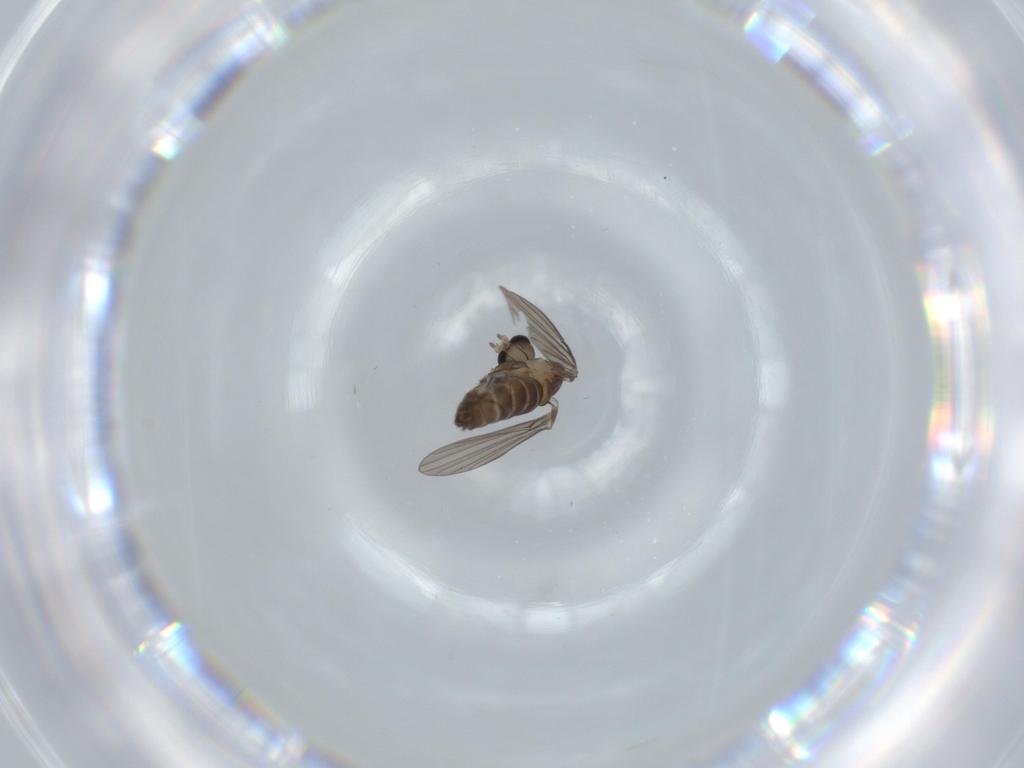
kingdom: Animalia
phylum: Arthropoda
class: Insecta
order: Diptera
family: Psychodidae
